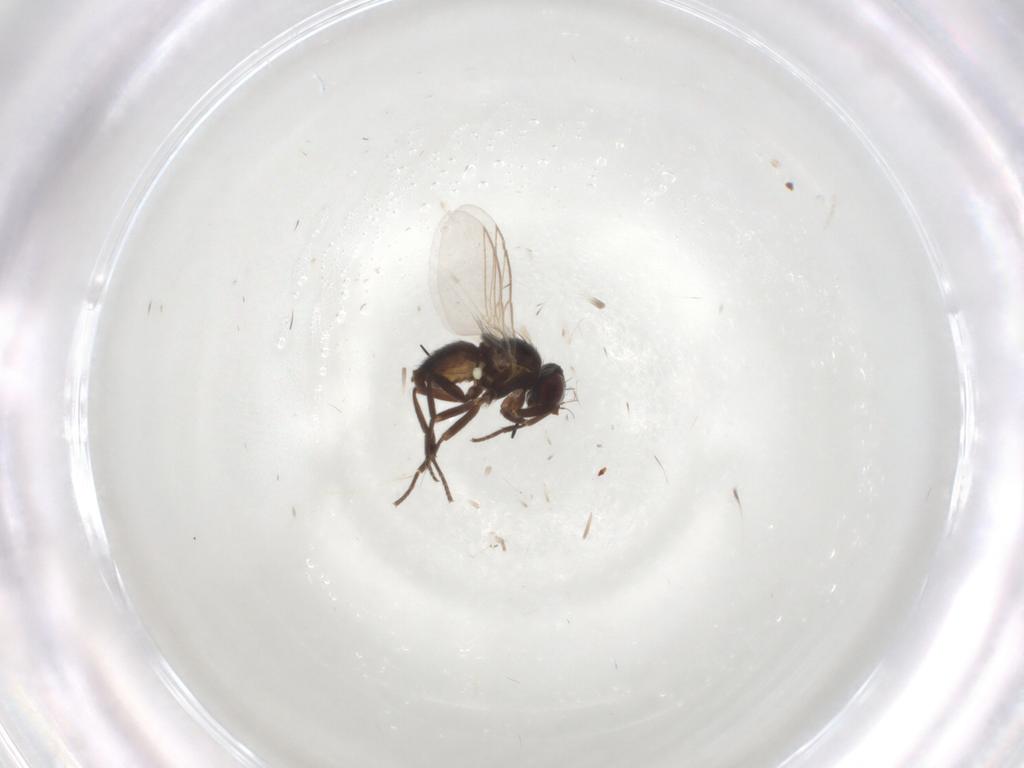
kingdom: Animalia
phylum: Arthropoda
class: Insecta
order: Diptera
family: Agromyzidae
